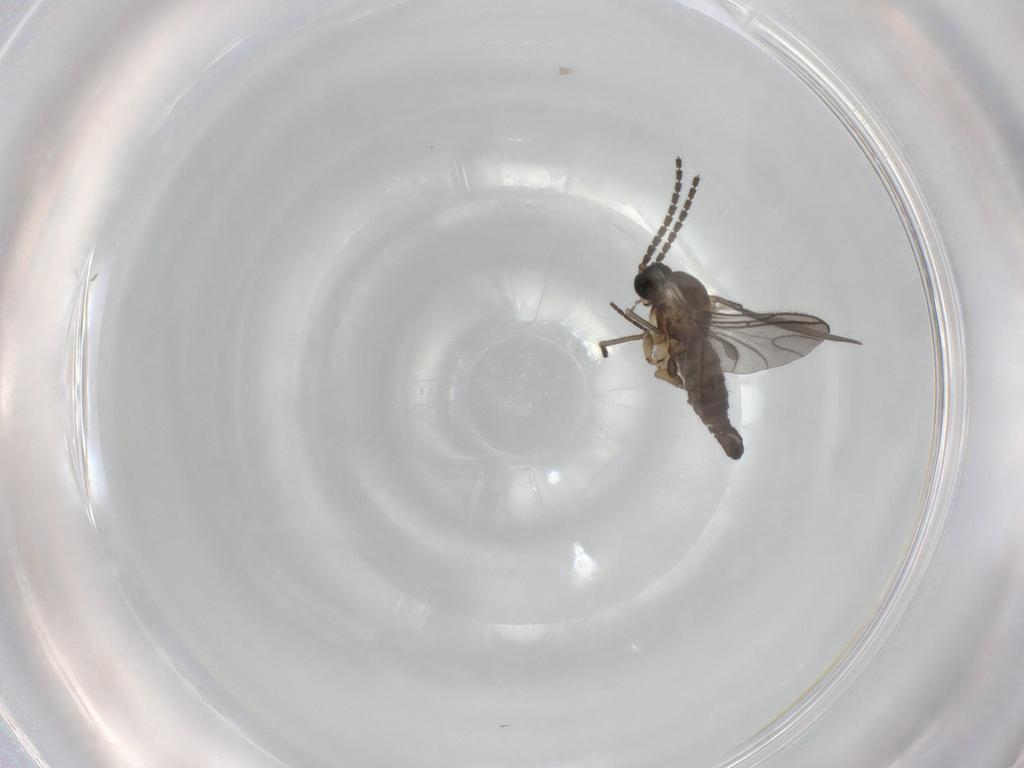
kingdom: Animalia
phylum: Arthropoda
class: Insecta
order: Diptera
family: Sciaridae
